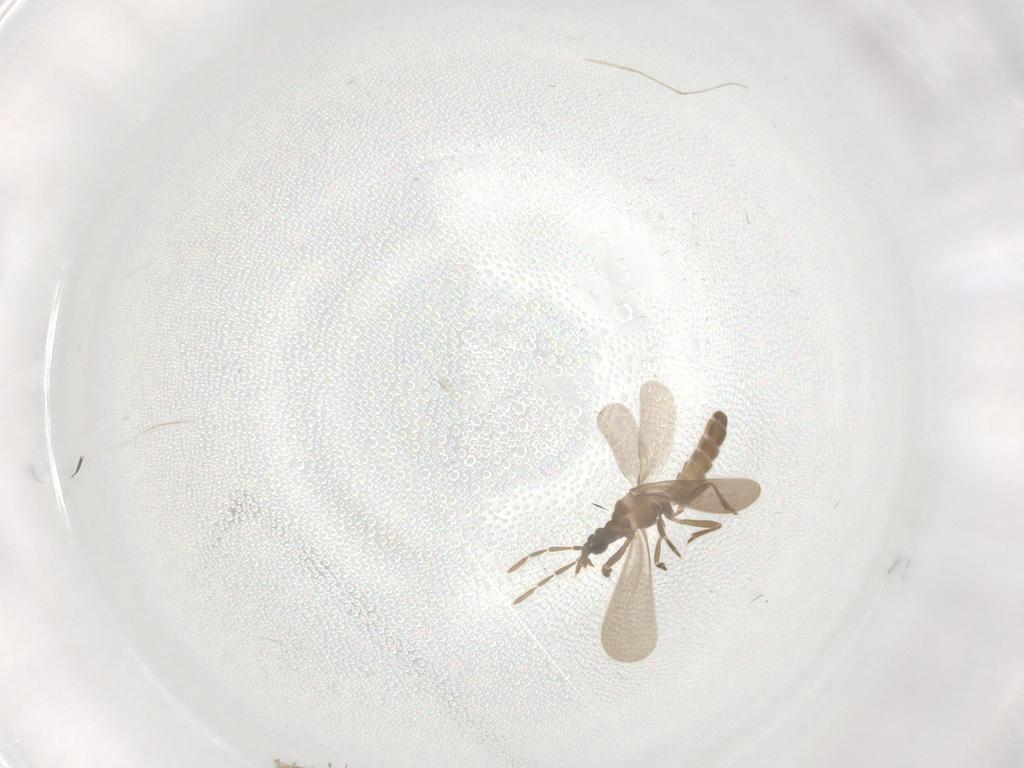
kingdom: Animalia
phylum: Arthropoda
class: Insecta
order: Hemiptera
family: Enicocephalidae
